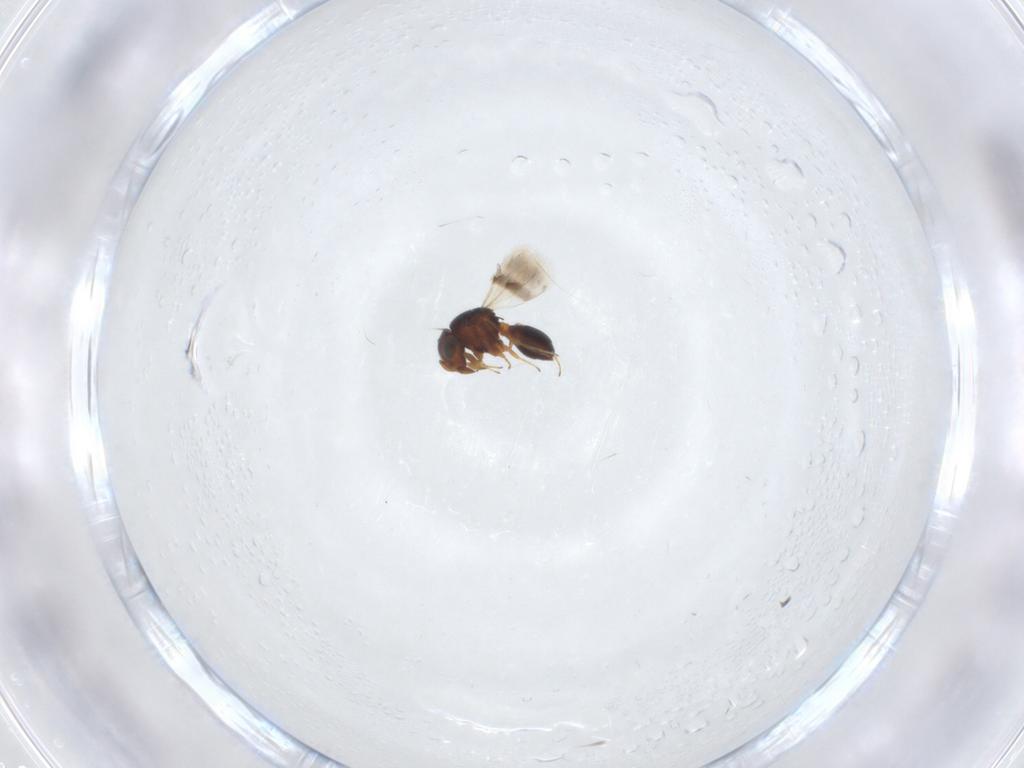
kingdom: Animalia
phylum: Arthropoda
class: Insecta
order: Hymenoptera
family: Scelionidae
